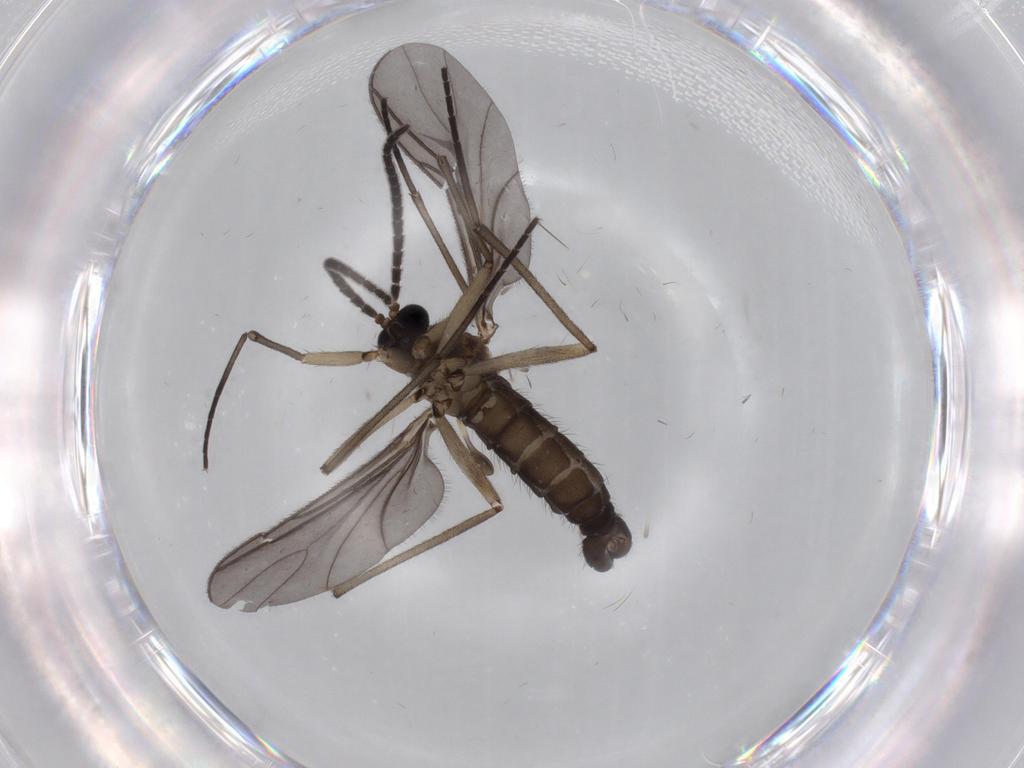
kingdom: Animalia
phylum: Arthropoda
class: Insecta
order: Diptera
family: Sciaridae
